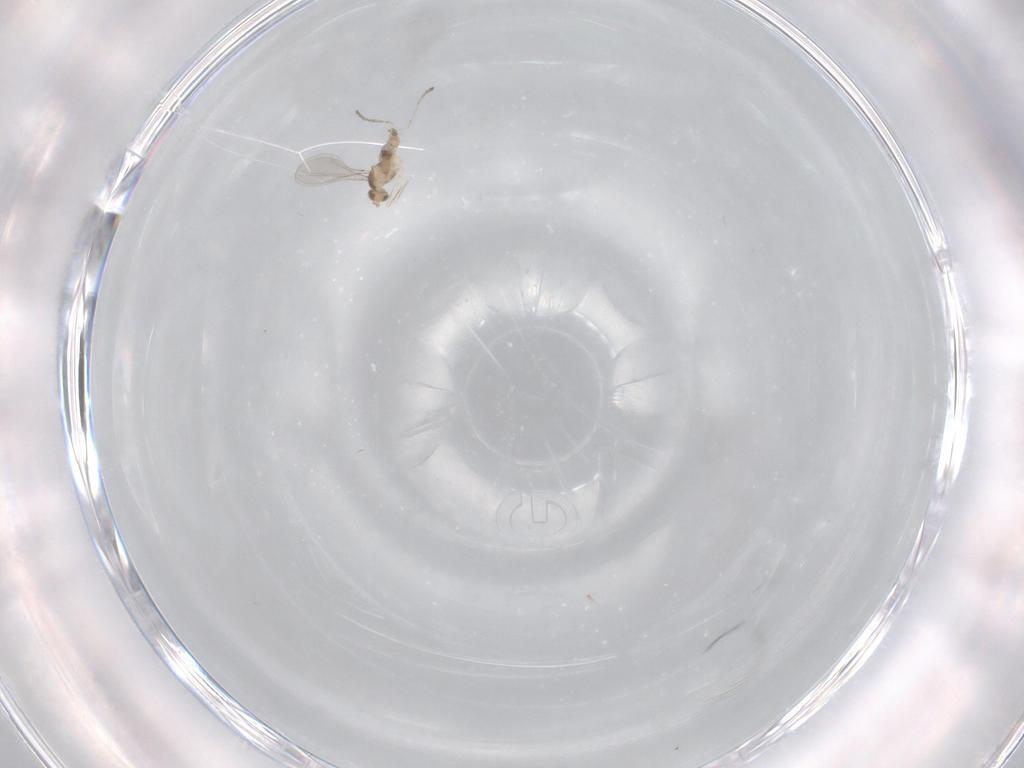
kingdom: Animalia
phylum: Arthropoda
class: Insecta
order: Diptera
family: Cecidomyiidae
